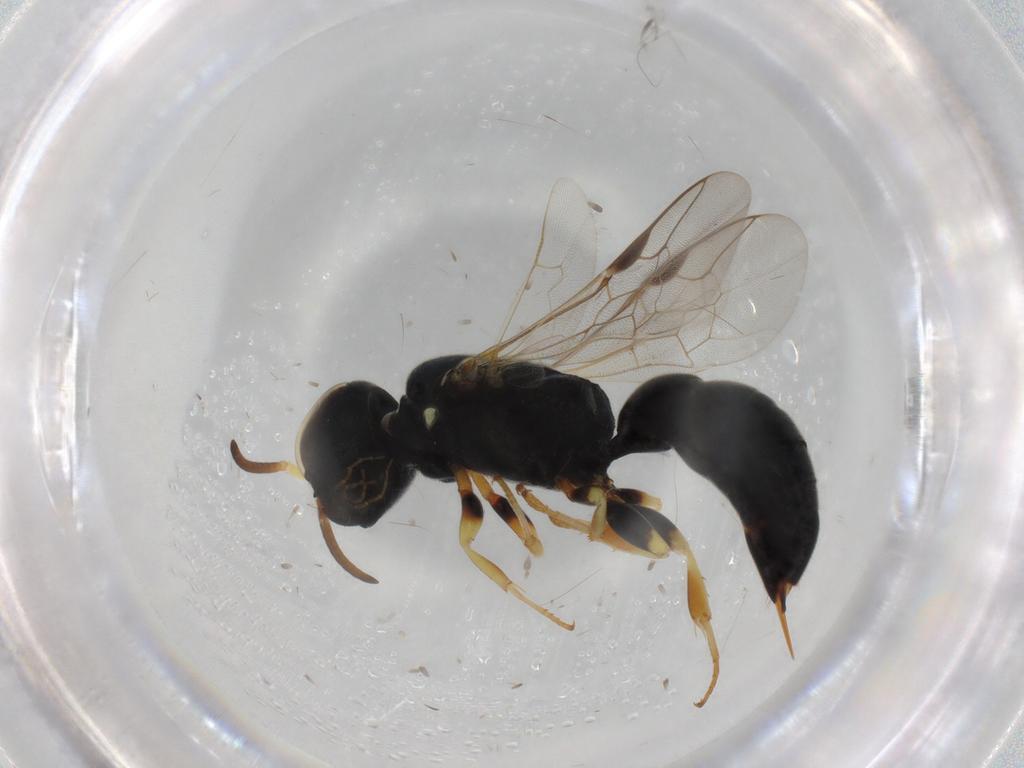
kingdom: Animalia
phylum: Arthropoda
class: Insecta
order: Hymenoptera
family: Pemphredonidae
